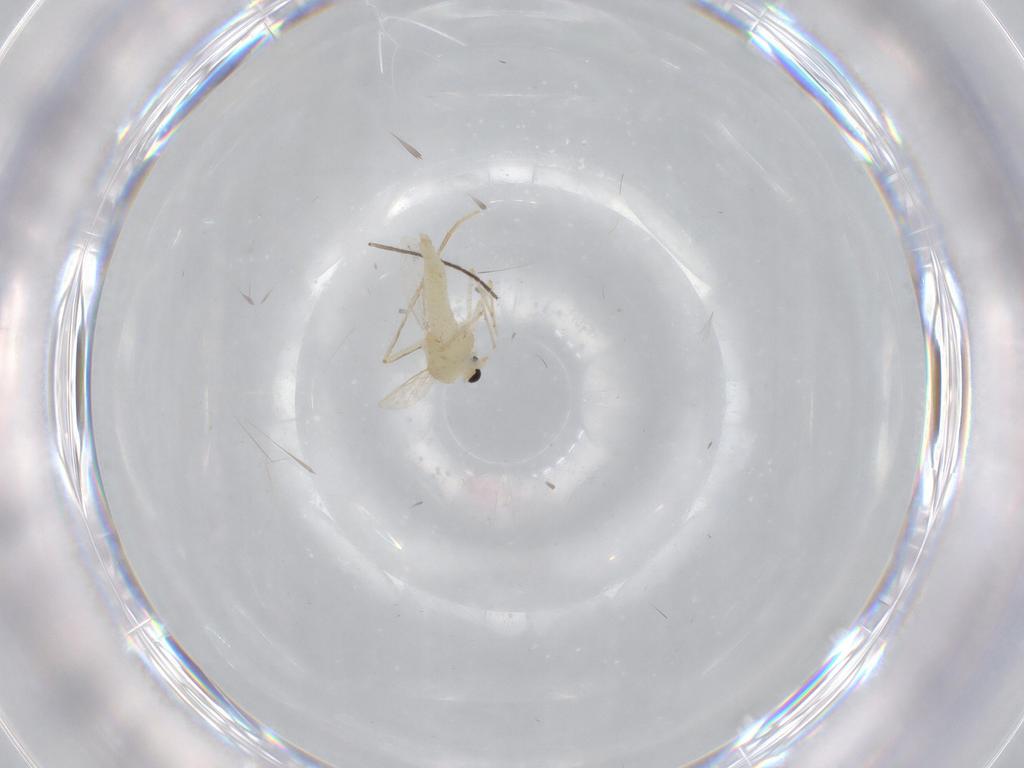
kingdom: Animalia
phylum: Arthropoda
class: Insecta
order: Diptera
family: Chironomidae
